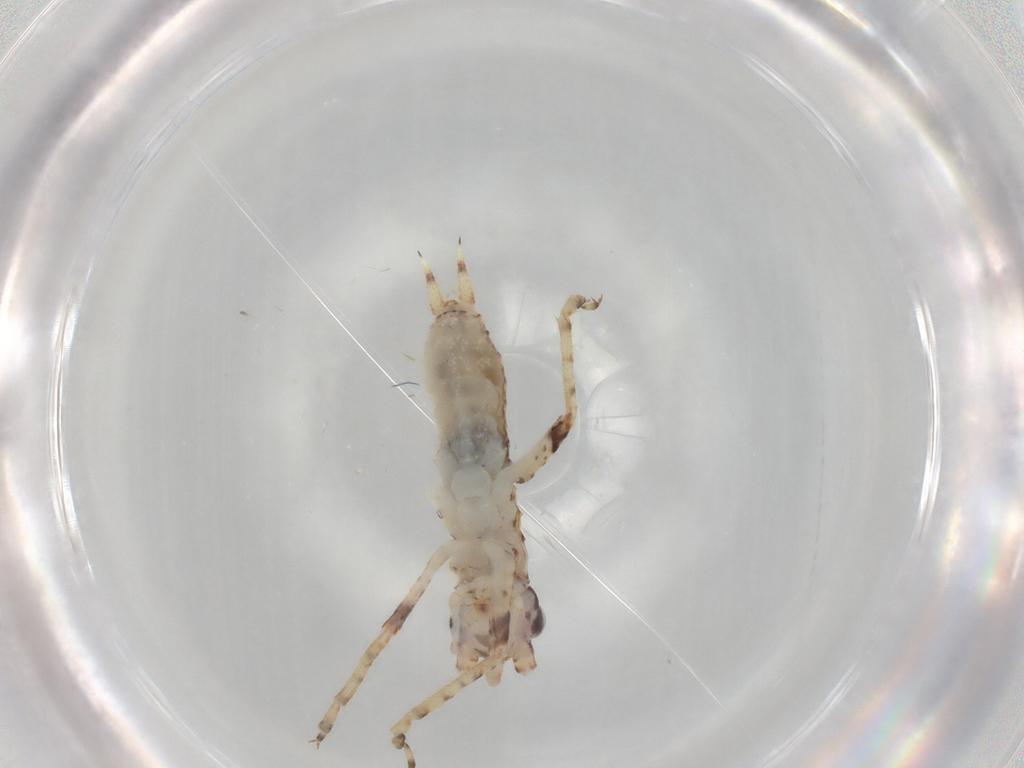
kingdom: Animalia
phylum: Arthropoda
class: Insecta
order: Orthoptera
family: Gryllidae
